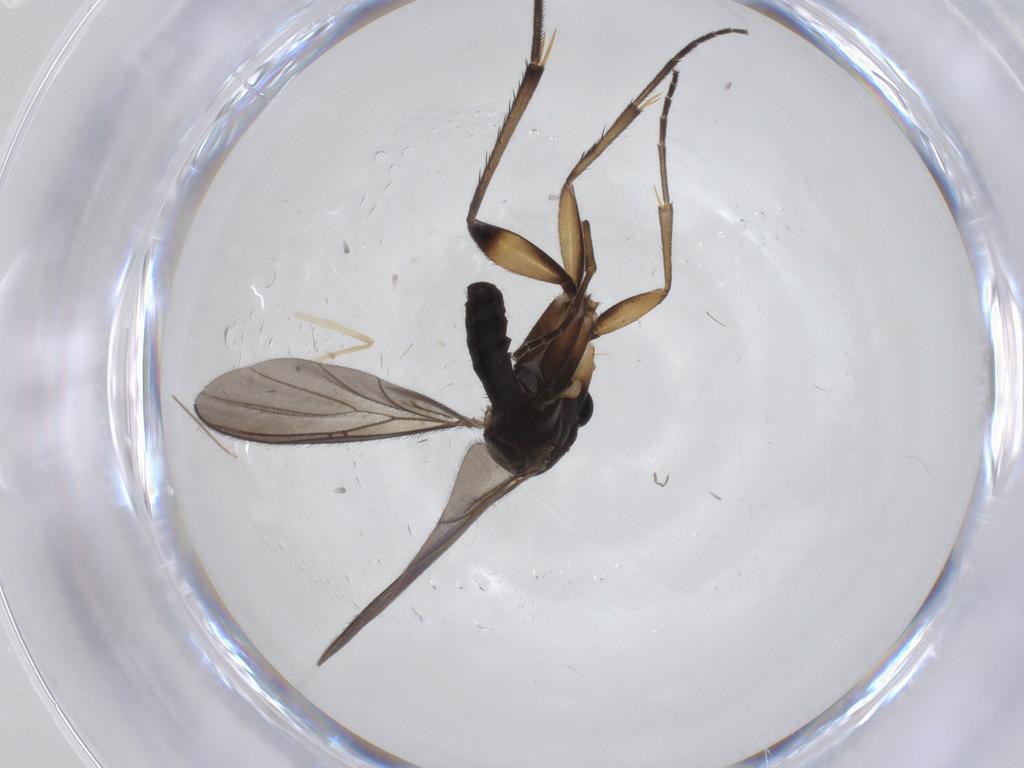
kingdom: Animalia
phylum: Arthropoda
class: Insecta
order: Diptera
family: Mycetophilidae
